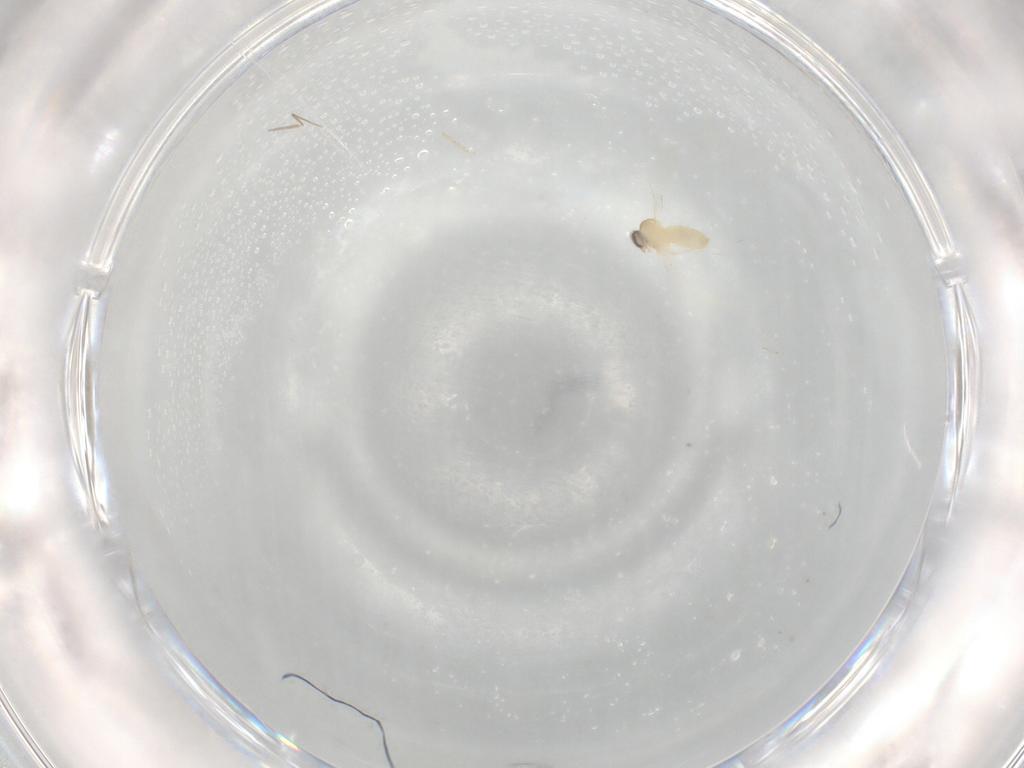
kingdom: Animalia
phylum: Arthropoda
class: Insecta
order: Diptera
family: Cecidomyiidae
